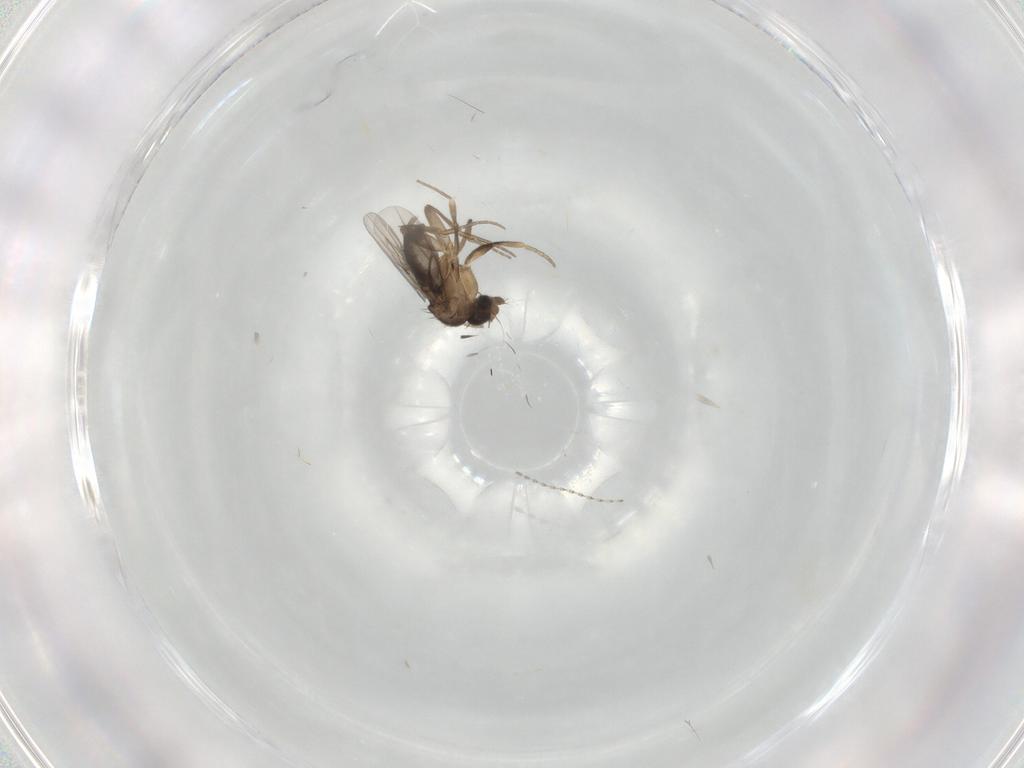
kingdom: Animalia
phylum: Arthropoda
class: Insecta
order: Diptera
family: Phoridae
